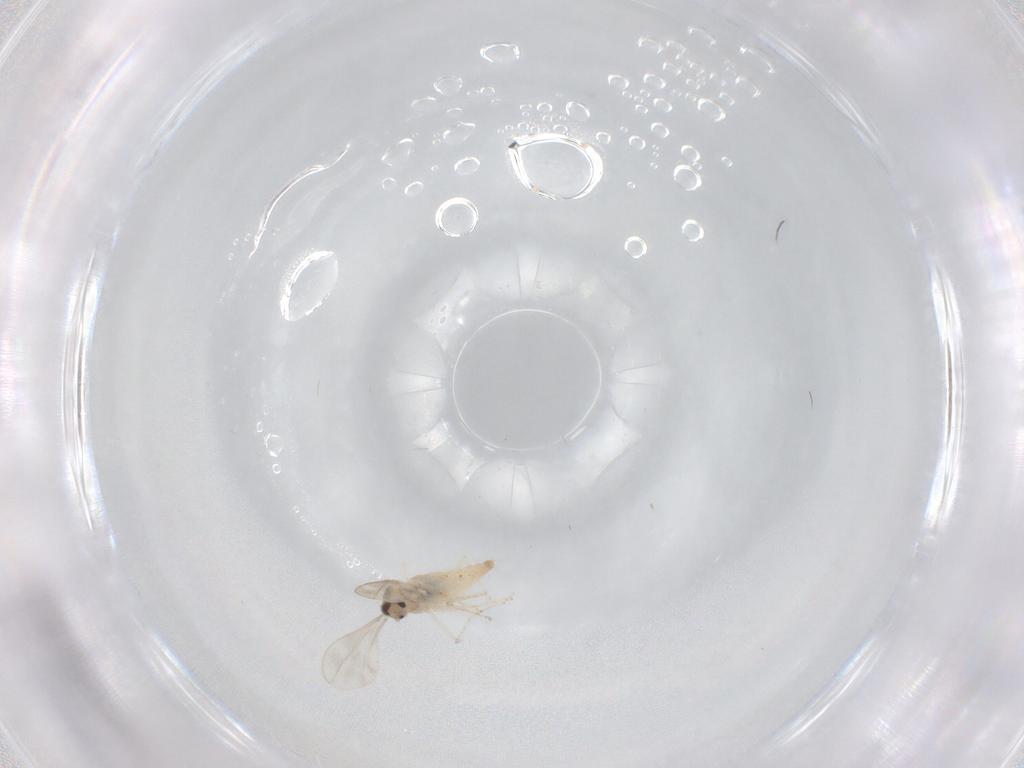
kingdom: Animalia
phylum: Arthropoda
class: Insecta
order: Diptera
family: Cecidomyiidae
